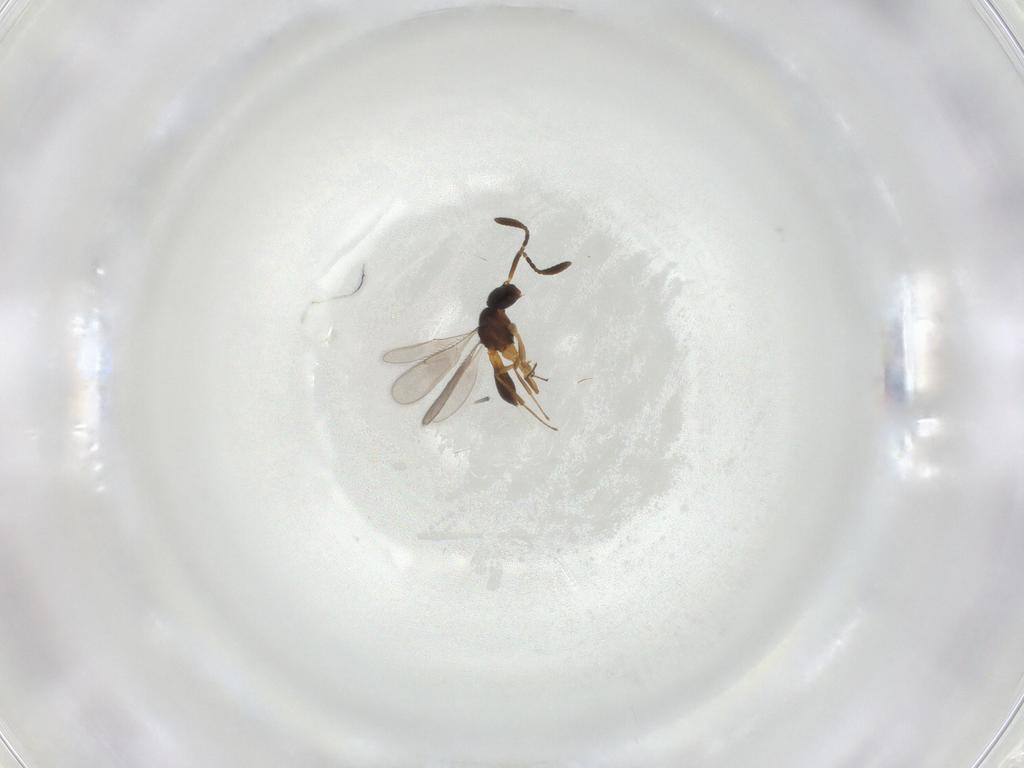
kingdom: Animalia
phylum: Arthropoda
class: Insecta
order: Hymenoptera
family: Scelionidae
